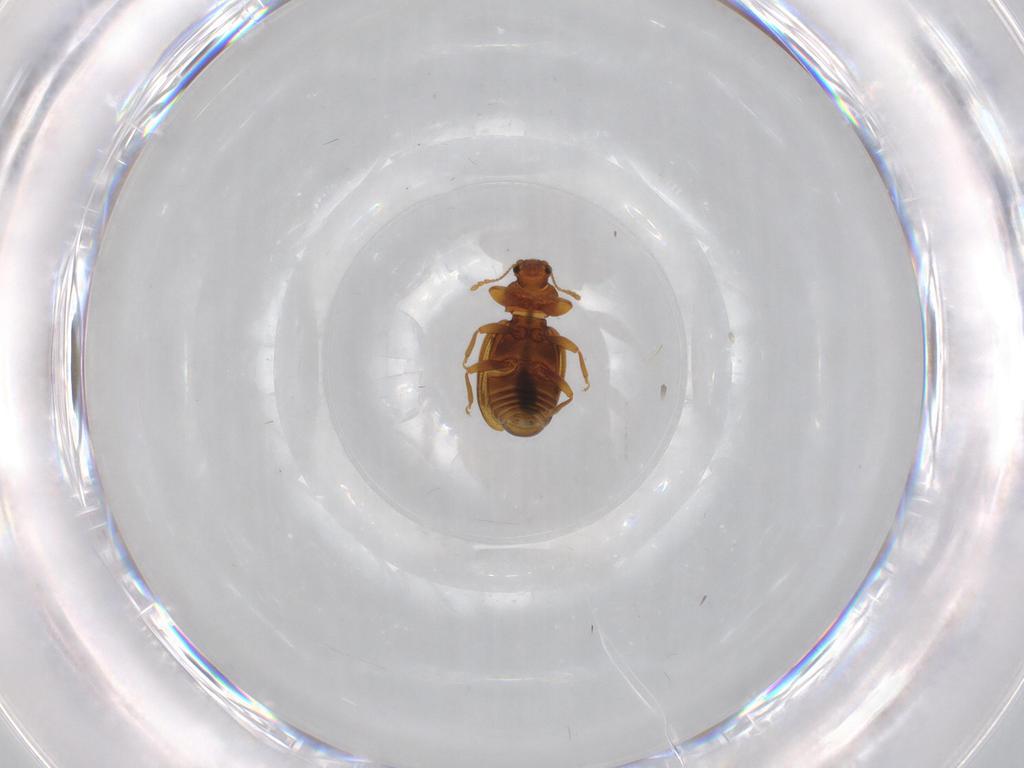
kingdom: Animalia
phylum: Arthropoda
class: Insecta
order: Coleoptera
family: Latridiidae
